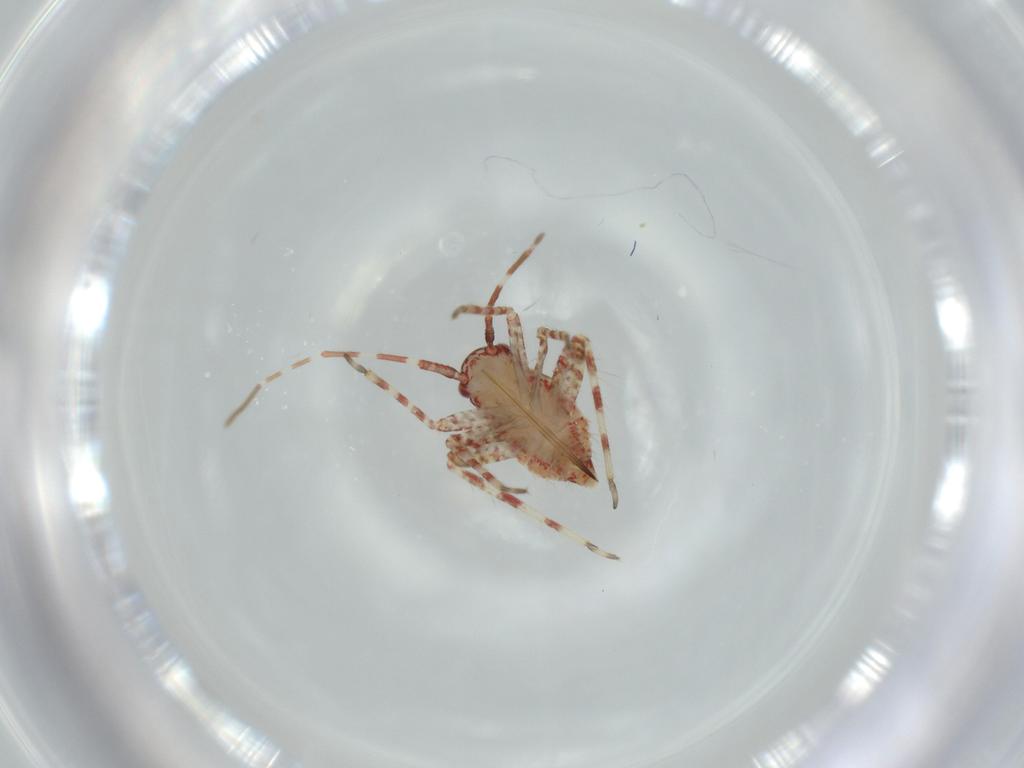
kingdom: Animalia
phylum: Arthropoda
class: Insecta
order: Hemiptera
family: Miridae
